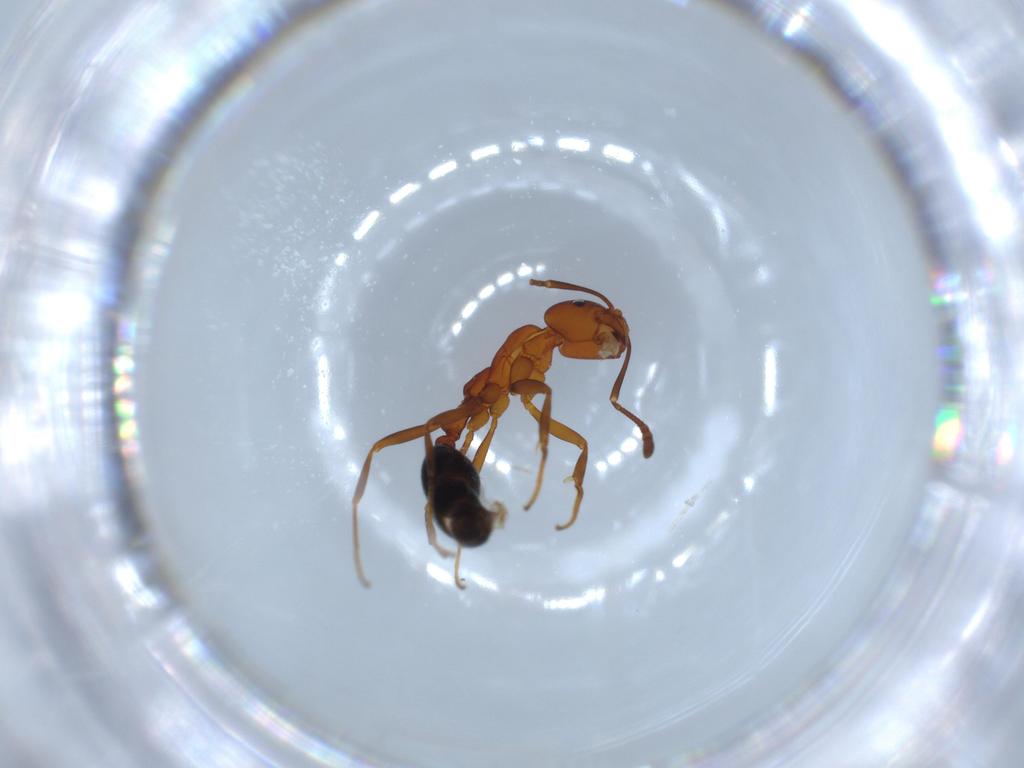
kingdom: Animalia
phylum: Arthropoda
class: Insecta
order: Hymenoptera
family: Formicidae
